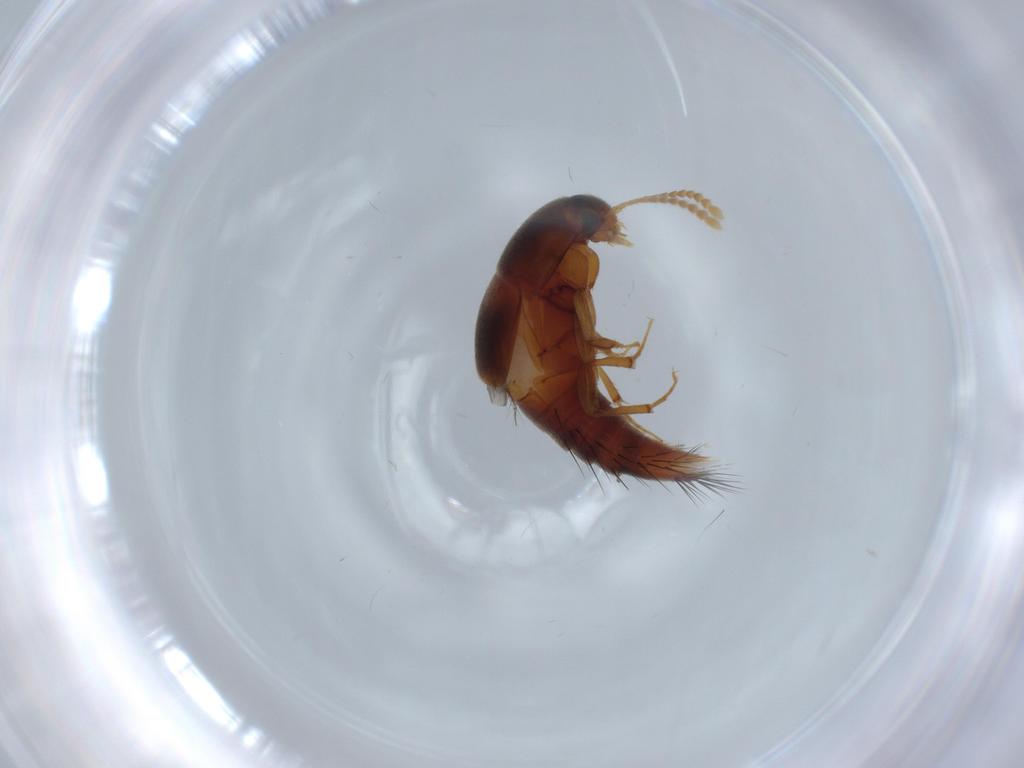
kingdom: Animalia
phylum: Arthropoda
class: Insecta
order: Coleoptera
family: Staphylinidae
